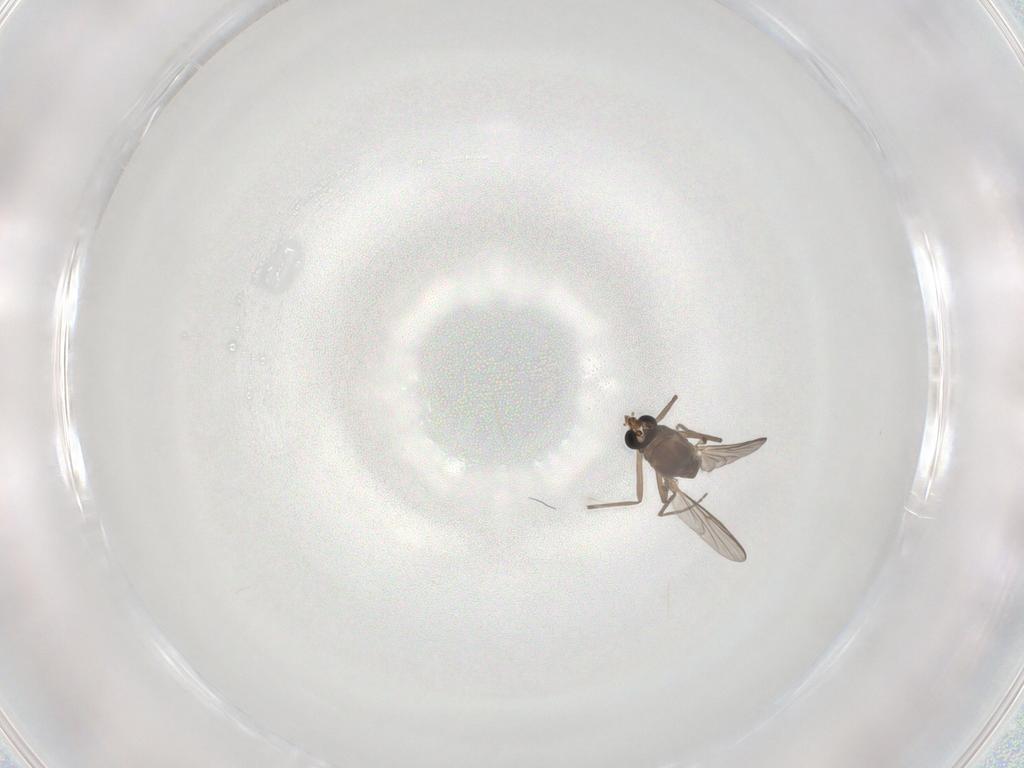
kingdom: Animalia
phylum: Arthropoda
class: Insecta
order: Diptera
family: Chironomidae
